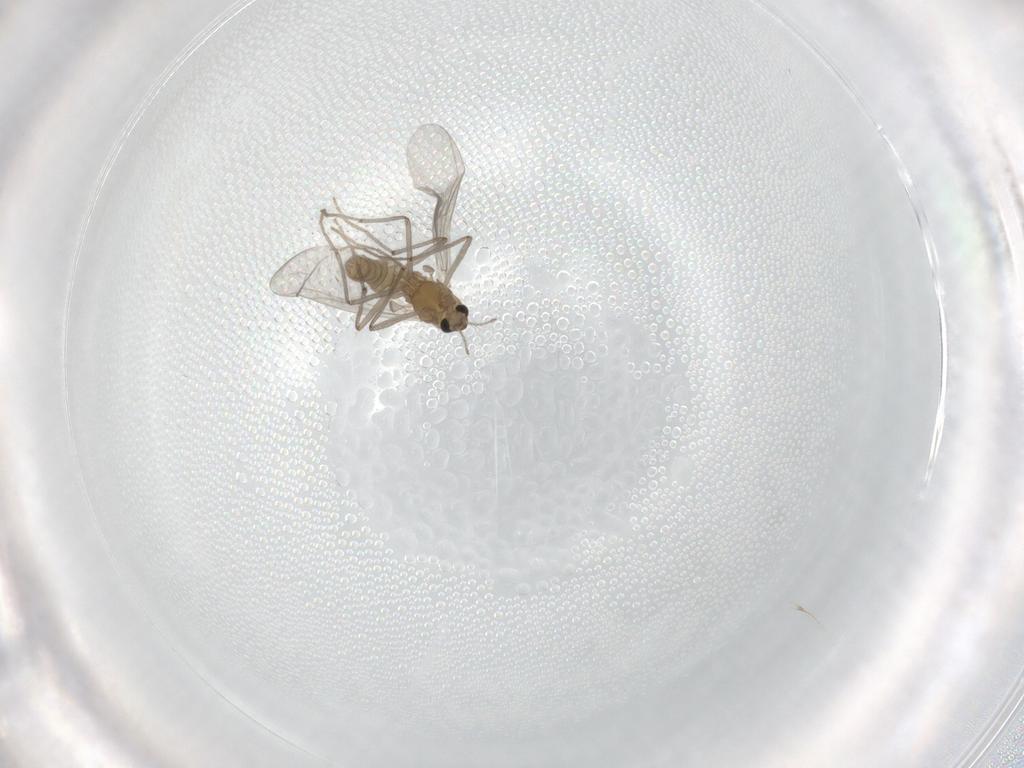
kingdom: Animalia
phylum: Arthropoda
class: Insecta
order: Diptera
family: Chironomidae
